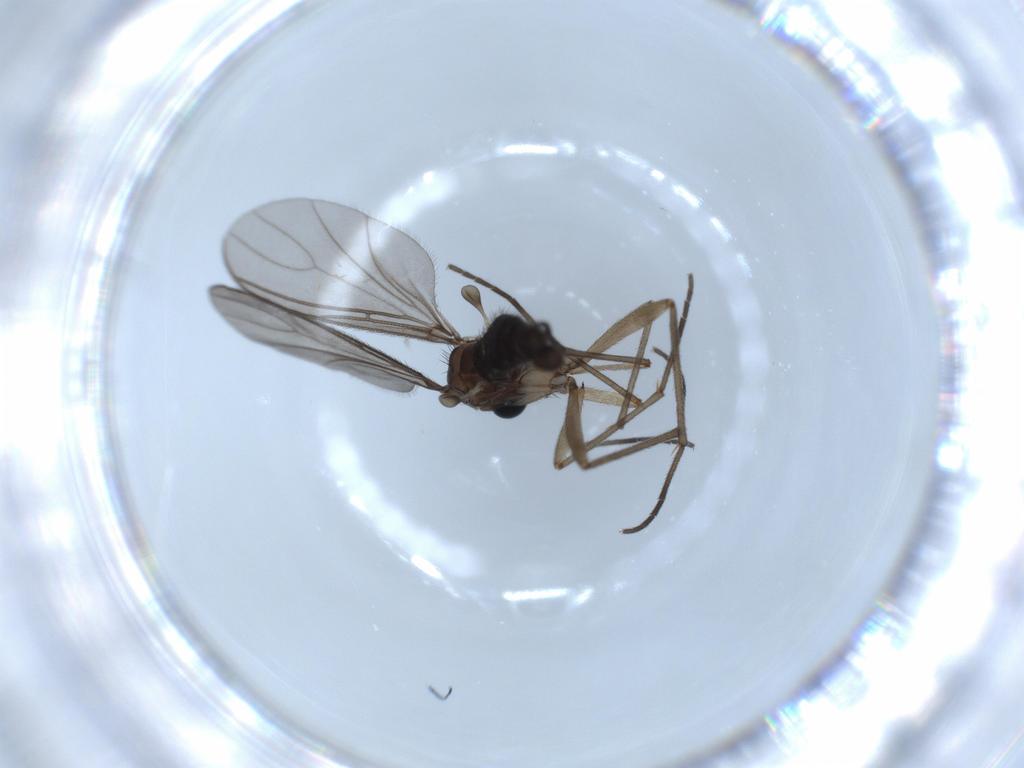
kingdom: Animalia
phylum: Arthropoda
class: Insecta
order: Diptera
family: Sciaridae
